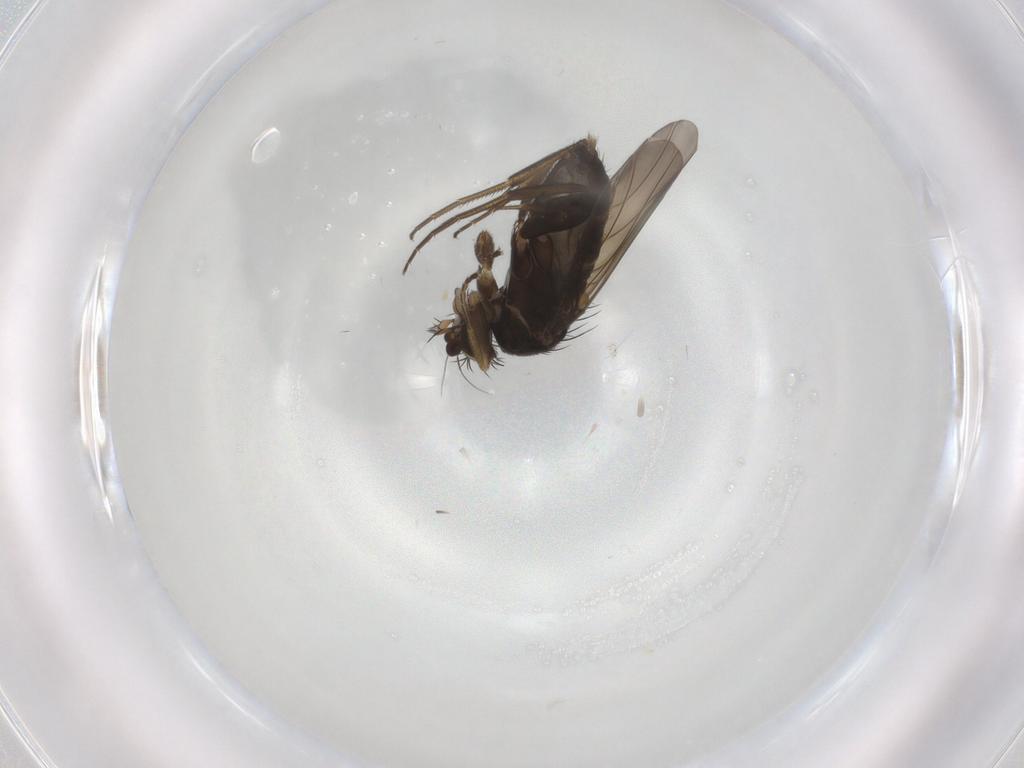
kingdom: Animalia
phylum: Arthropoda
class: Insecta
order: Diptera
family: Phoridae
